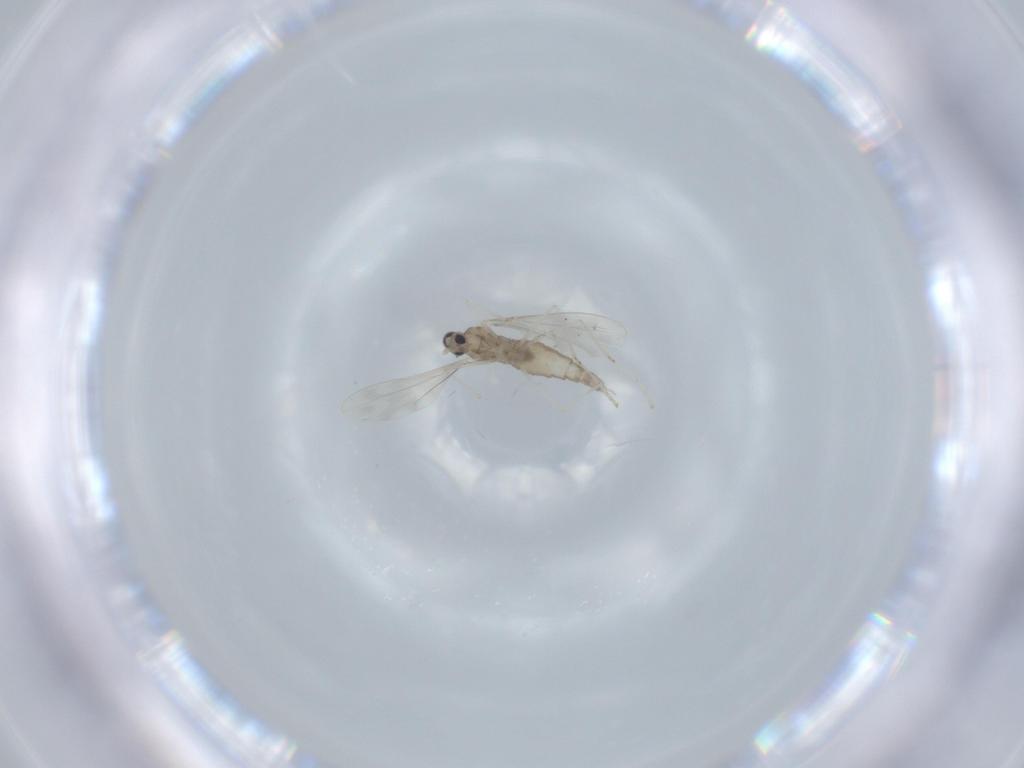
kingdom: Animalia
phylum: Arthropoda
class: Insecta
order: Diptera
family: Cecidomyiidae
